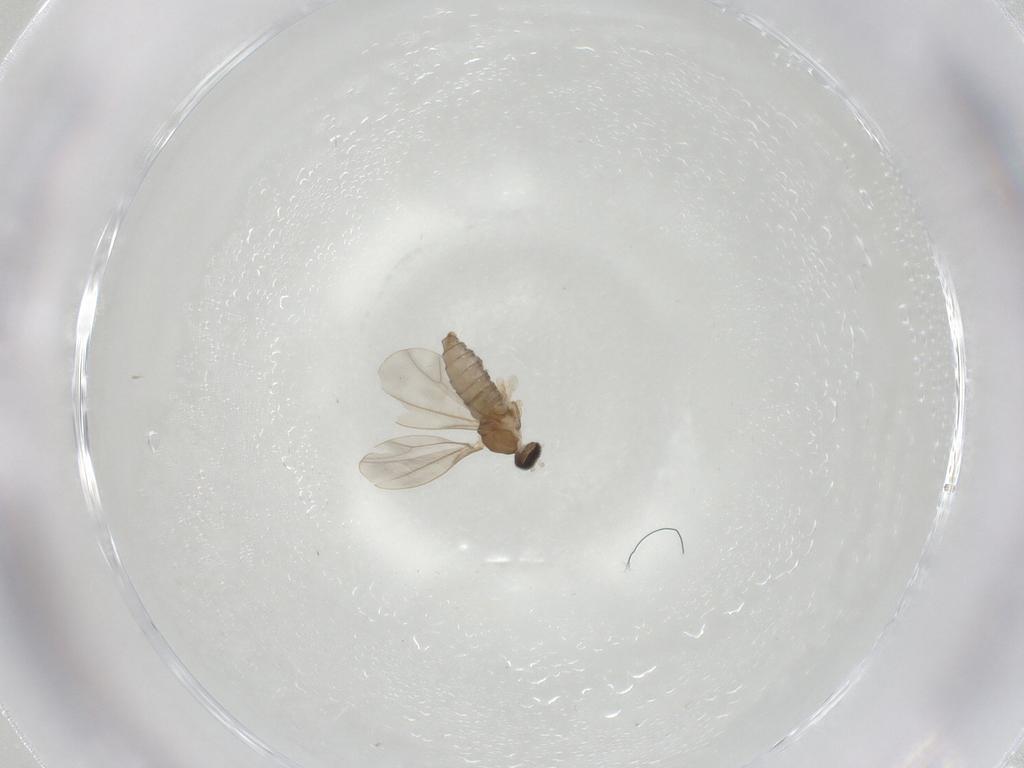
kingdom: Animalia
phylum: Arthropoda
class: Insecta
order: Diptera
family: Cecidomyiidae
